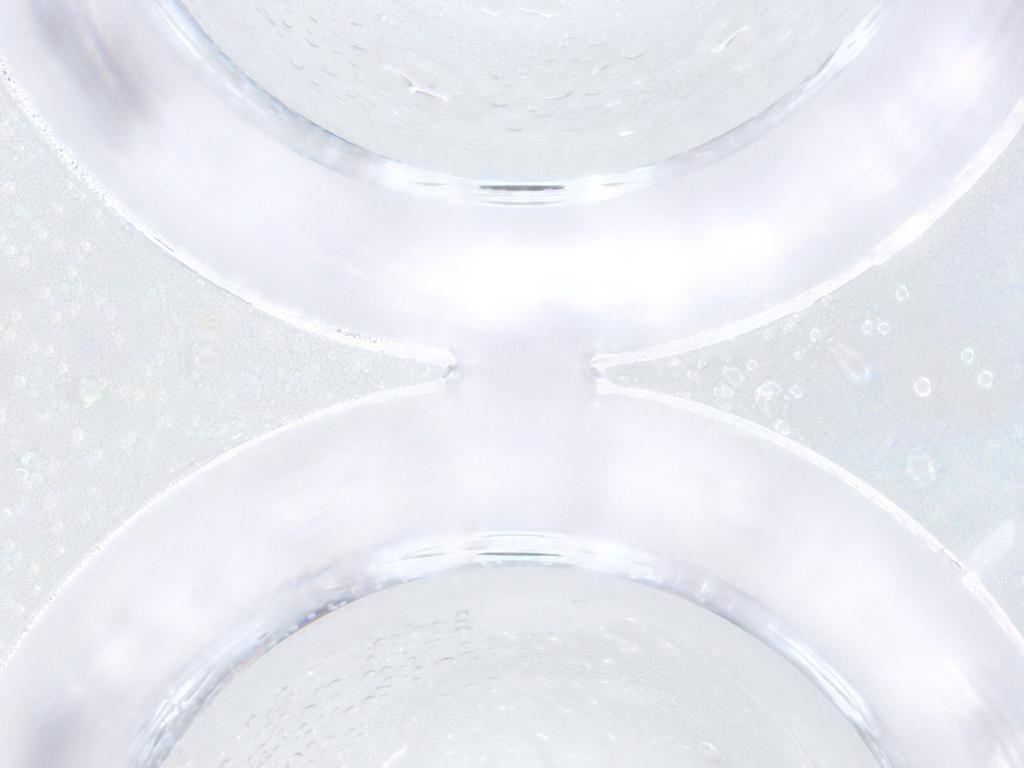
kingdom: Animalia
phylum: Arthropoda
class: Insecta
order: Diptera
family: Psychodidae
